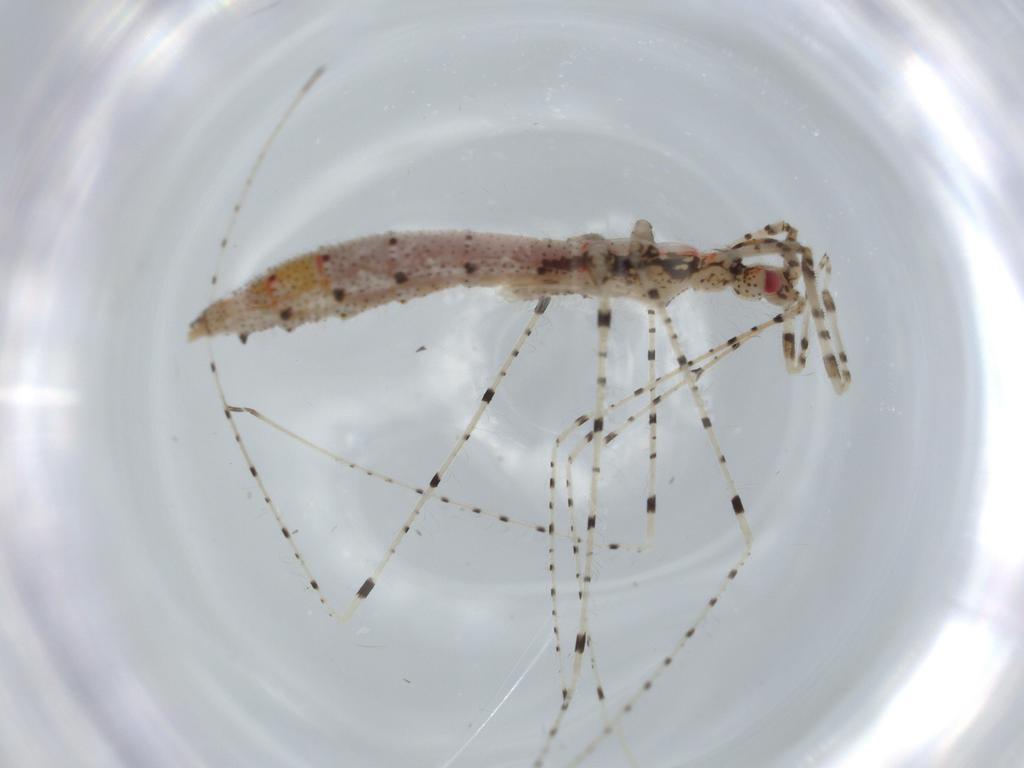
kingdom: Animalia
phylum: Arthropoda
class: Insecta
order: Hemiptera
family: Reduviidae
